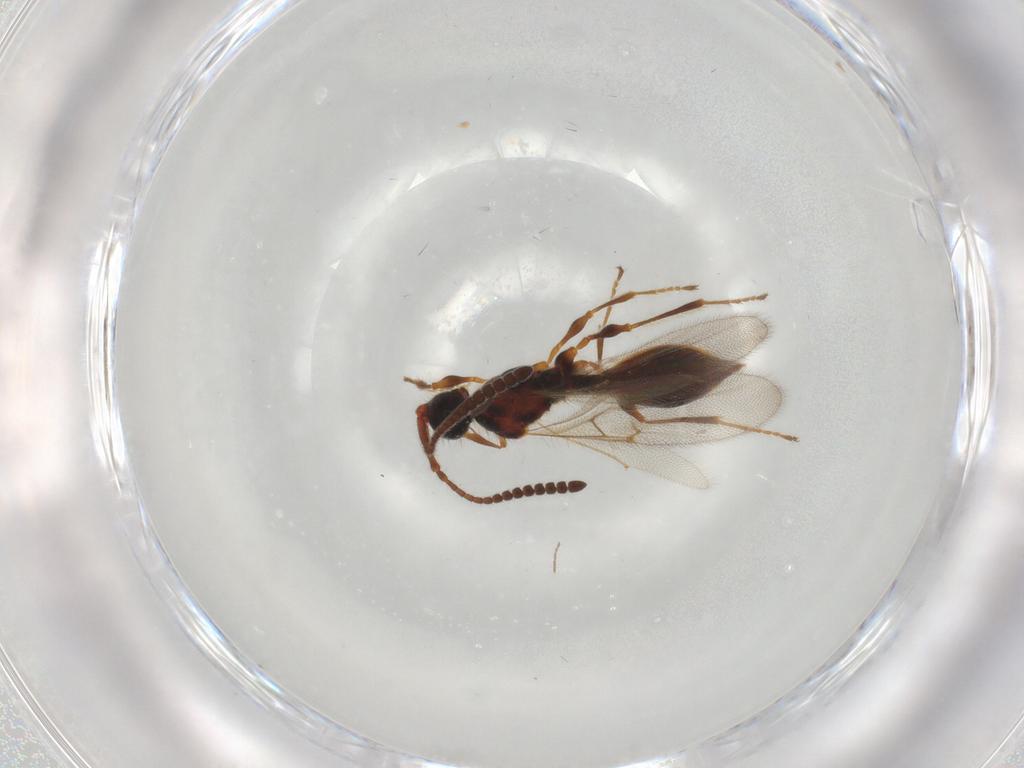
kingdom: Animalia
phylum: Arthropoda
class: Insecta
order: Hymenoptera
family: Diapriidae
